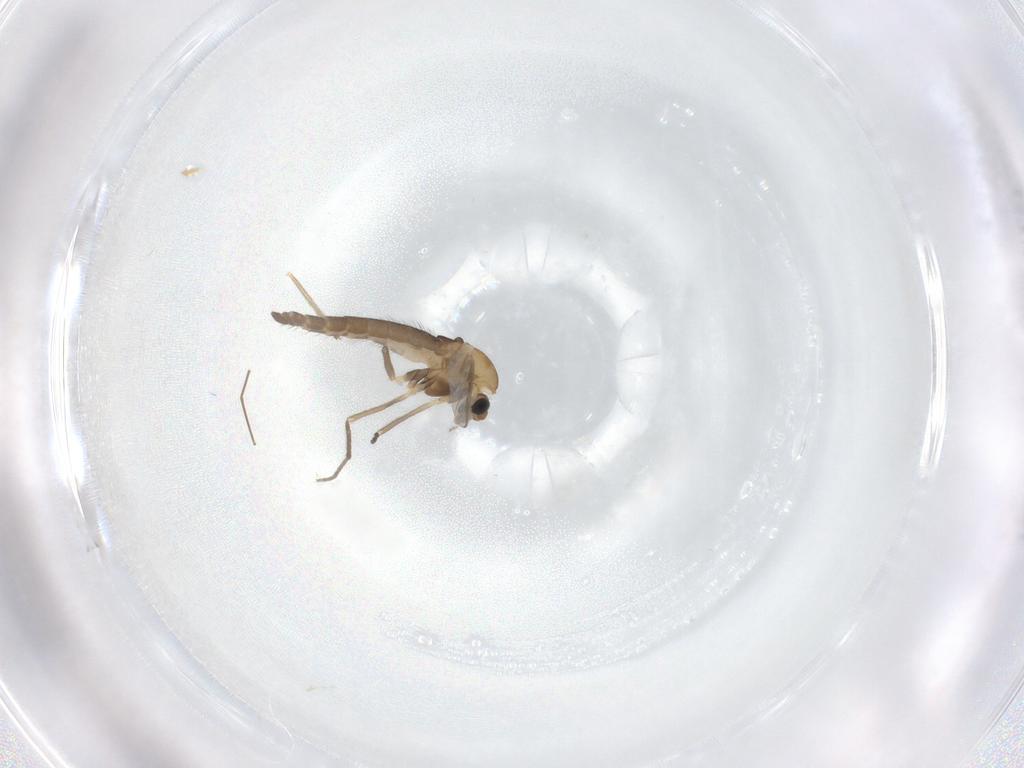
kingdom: Animalia
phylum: Arthropoda
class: Insecta
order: Diptera
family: Chironomidae
